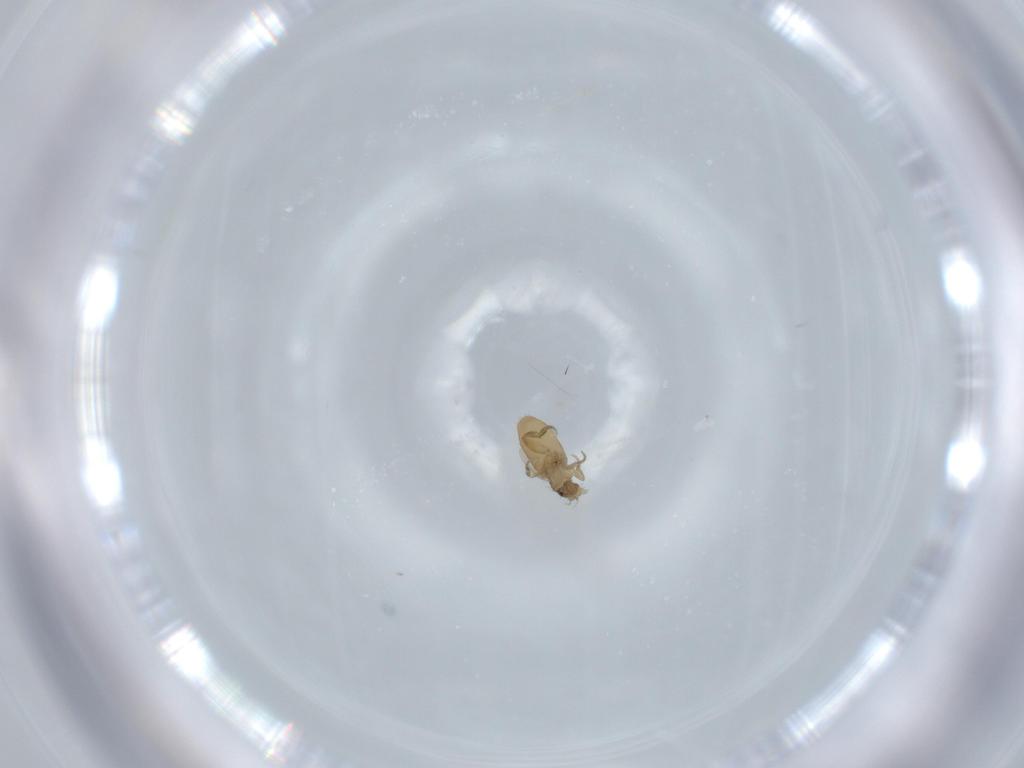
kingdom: Animalia
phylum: Arthropoda
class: Insecta
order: Diptera
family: Phoridae
